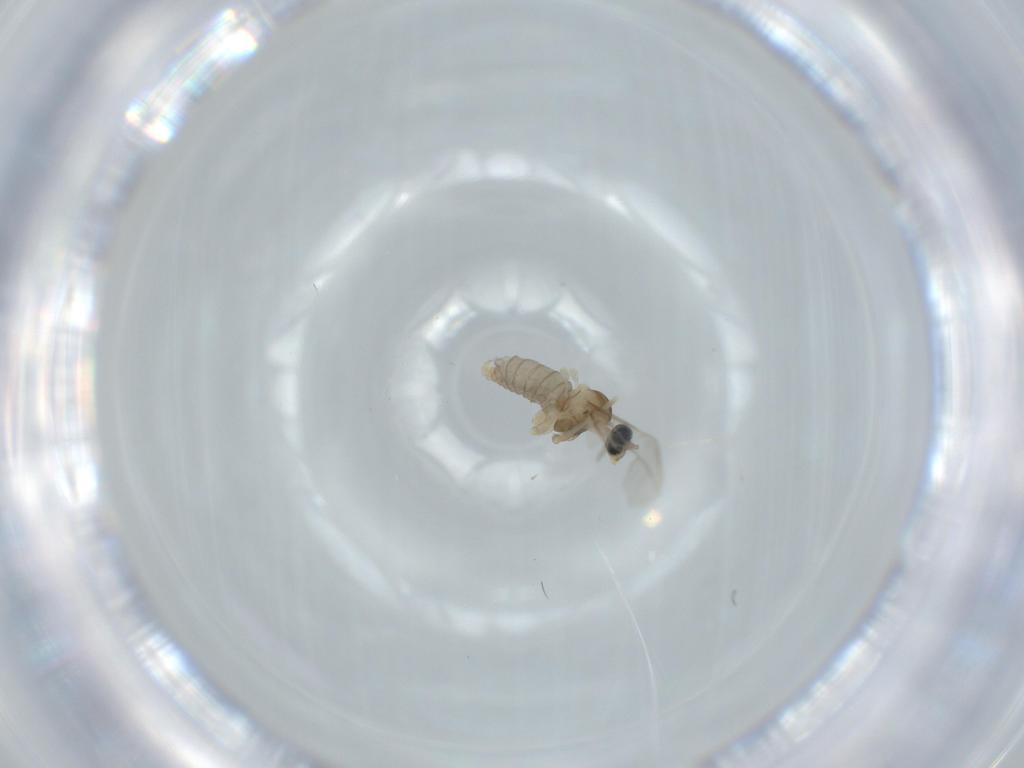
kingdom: Animalia
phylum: Arthropoda
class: Insecta
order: Diptera
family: Cecidomyiidae
